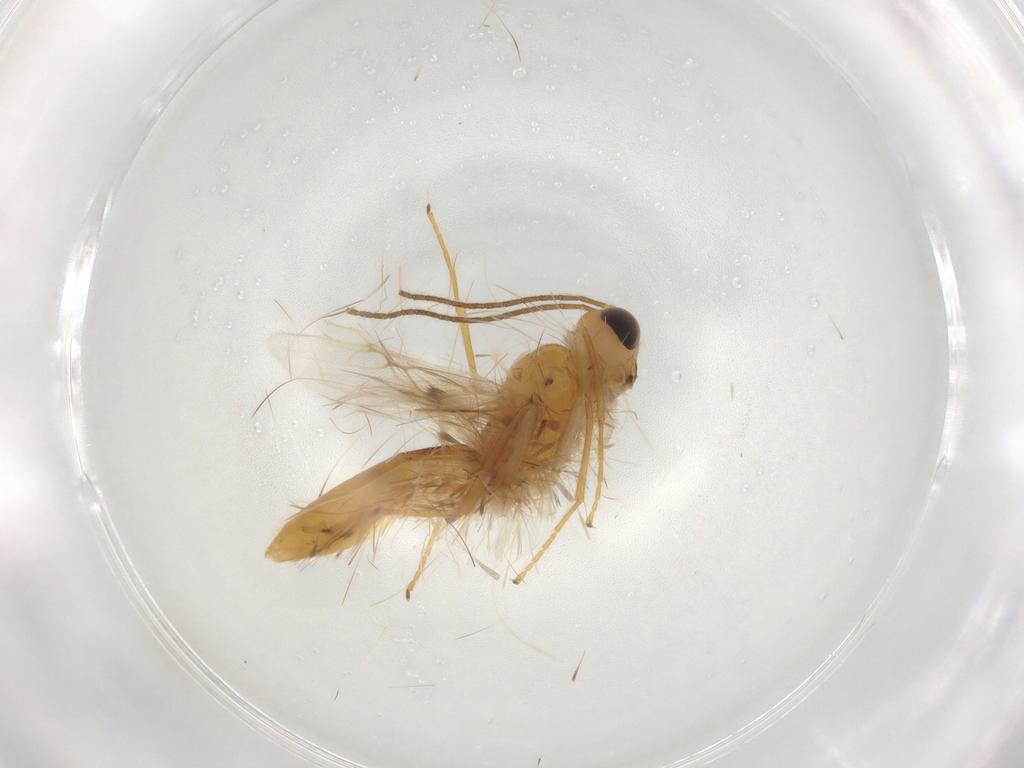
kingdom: Animalia
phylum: Arthropoda
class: Insecta
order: Hymenoptera
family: Braconidae
